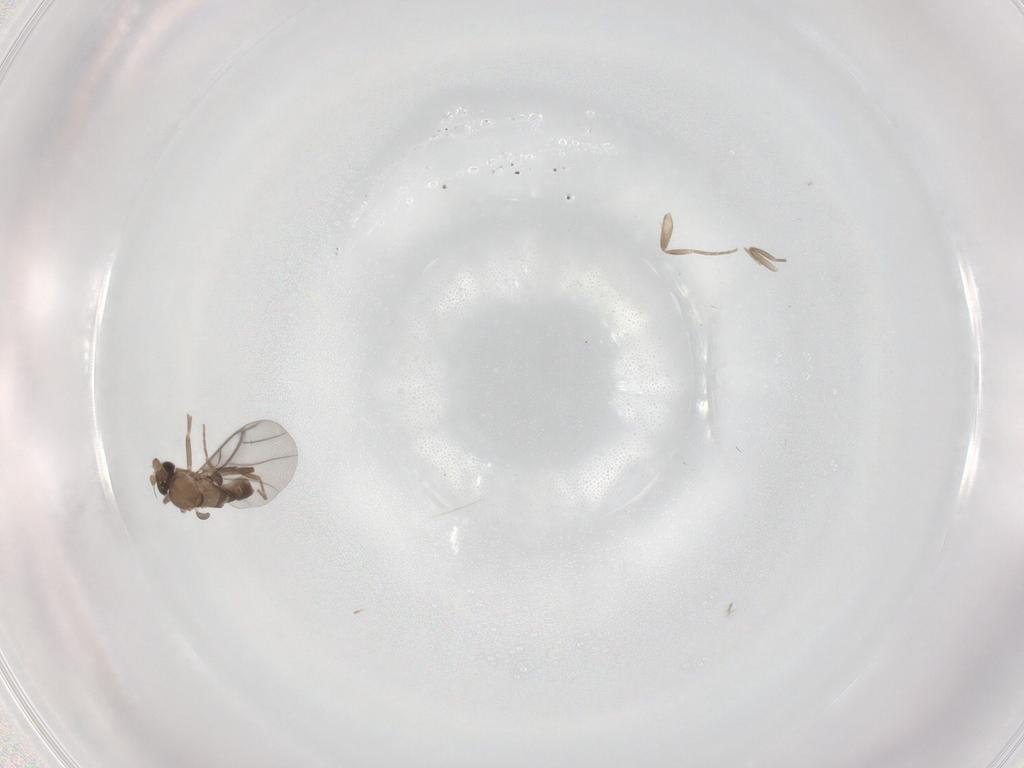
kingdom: Animalia
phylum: Arthropoda
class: Insecta
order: Diptera
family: Phoridae
